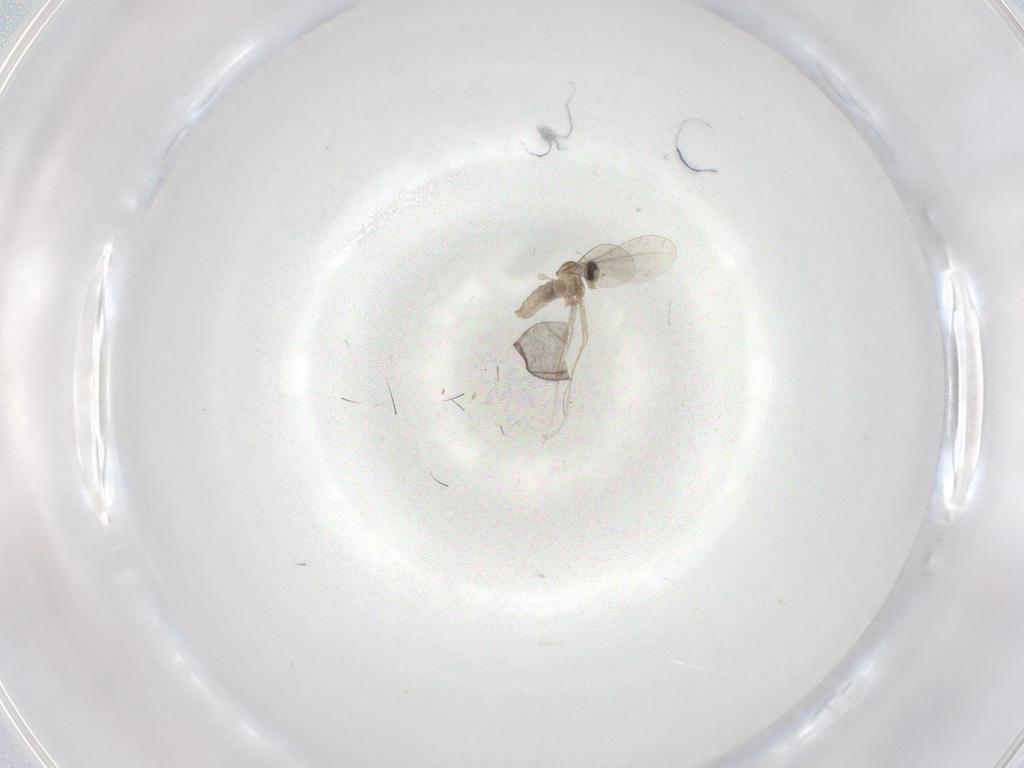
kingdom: Animalia
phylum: Arthropoda
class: Insecta
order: Diptera
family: Cecidomyiidae
